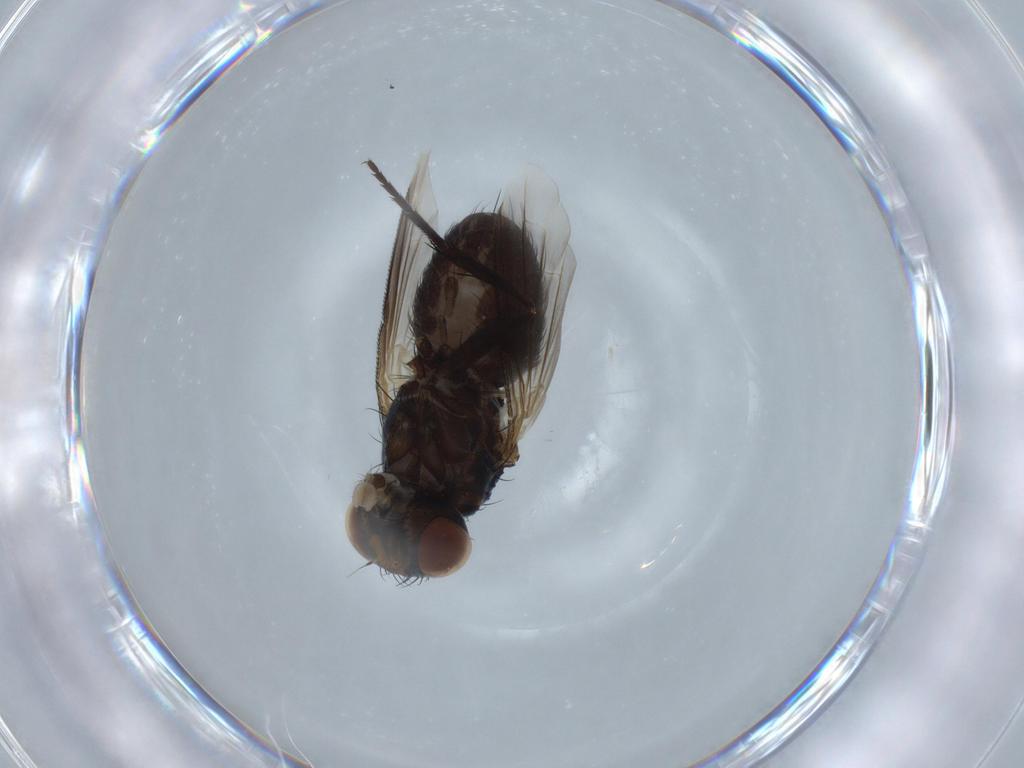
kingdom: Animalia
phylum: Arthropoda
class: Insecta
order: Diptera
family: Tachinidae
